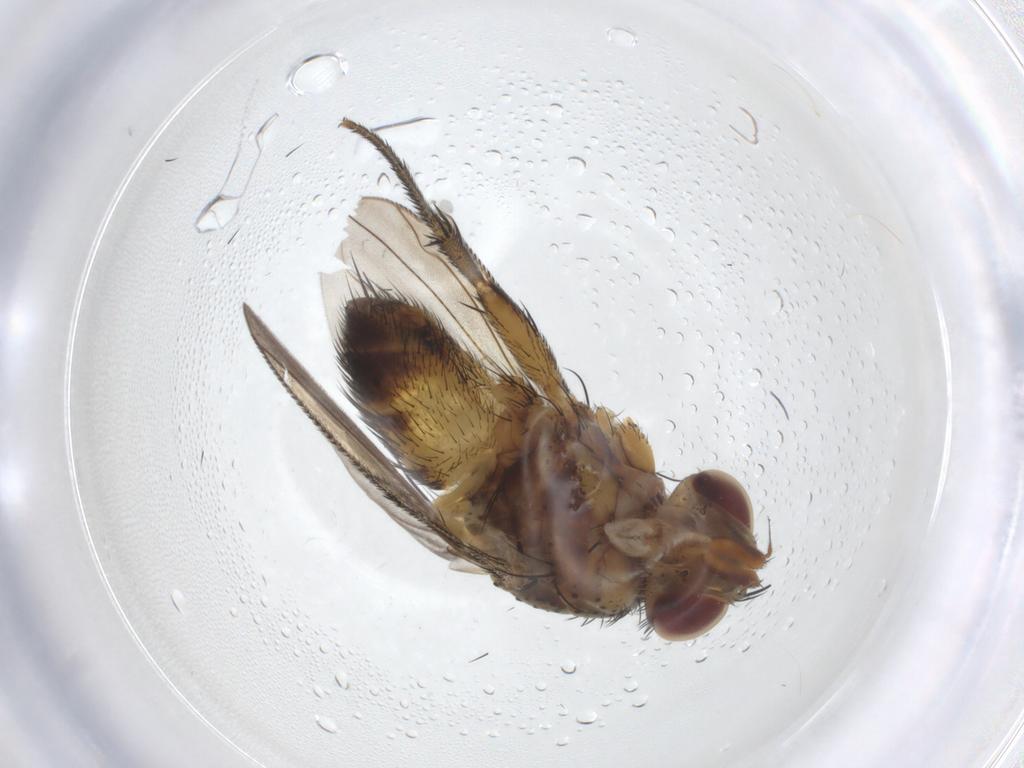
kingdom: Animalia
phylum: Arthropoda
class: Insecta
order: Diptera
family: Tachinidae
